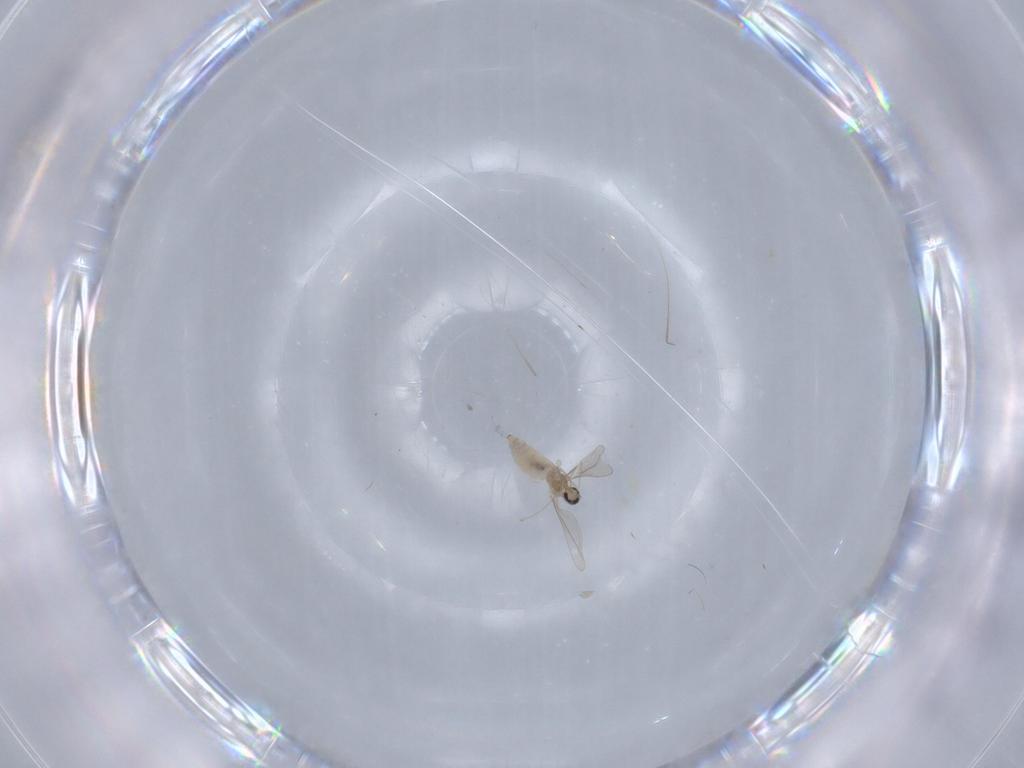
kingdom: Animalia
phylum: Arthropoda
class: Insecta
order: Diptera
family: Cecidomyiidae
